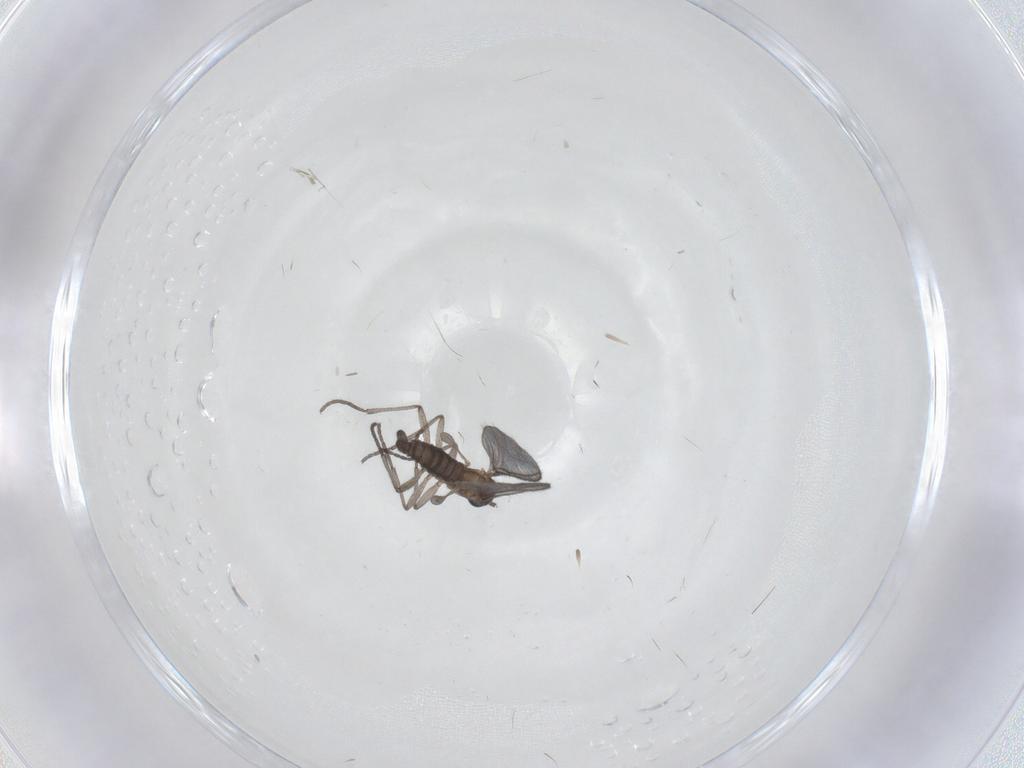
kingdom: Animalia
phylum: Arthropoda
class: Insecta
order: Diptera
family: Sciaridae
